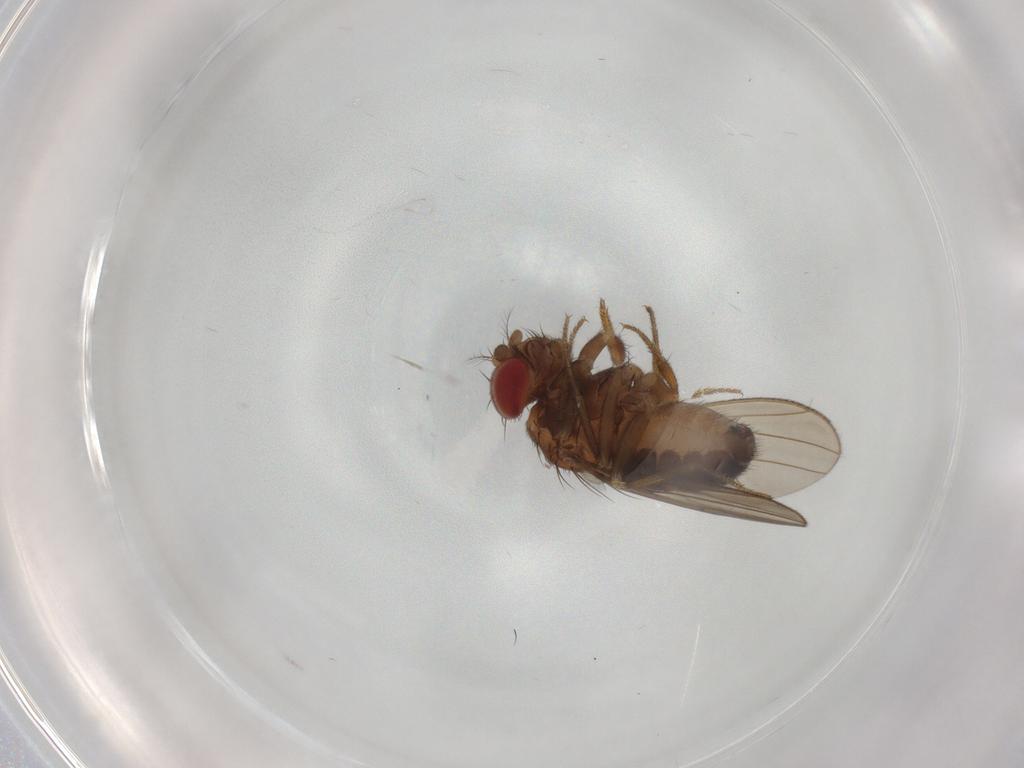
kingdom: Animalia
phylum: Arthropoda
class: Insecta
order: Diptera
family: Drosophilidae
